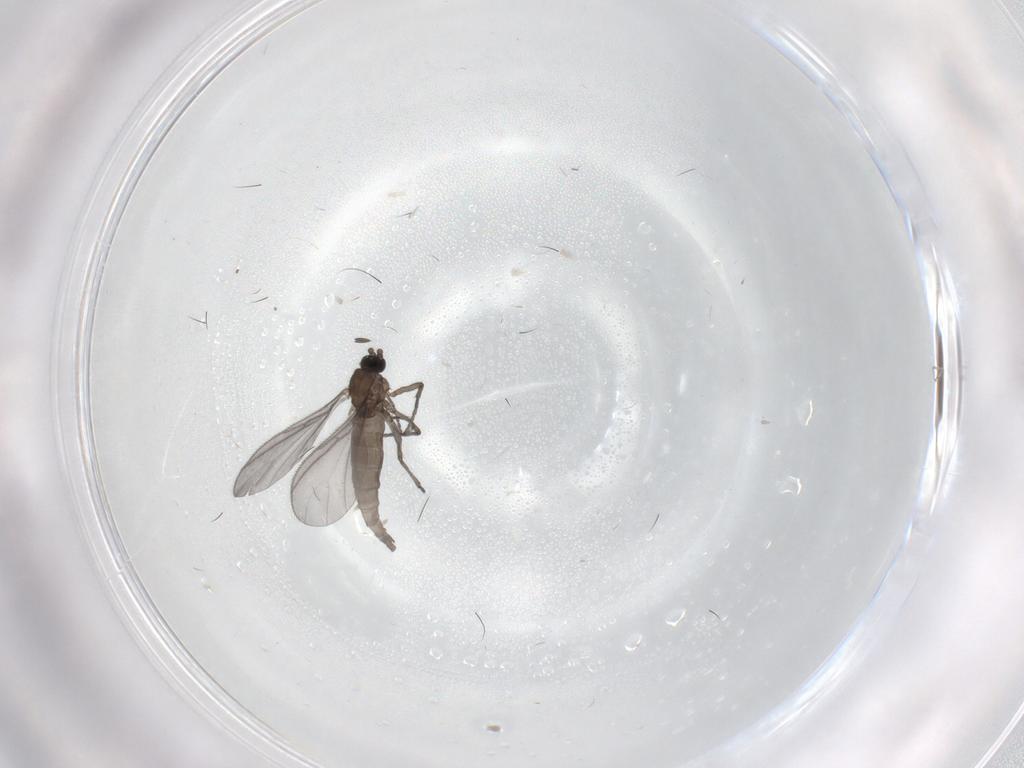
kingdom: Animalia
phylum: Arthropoda
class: Insecta
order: Diptera
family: Sciaridae
